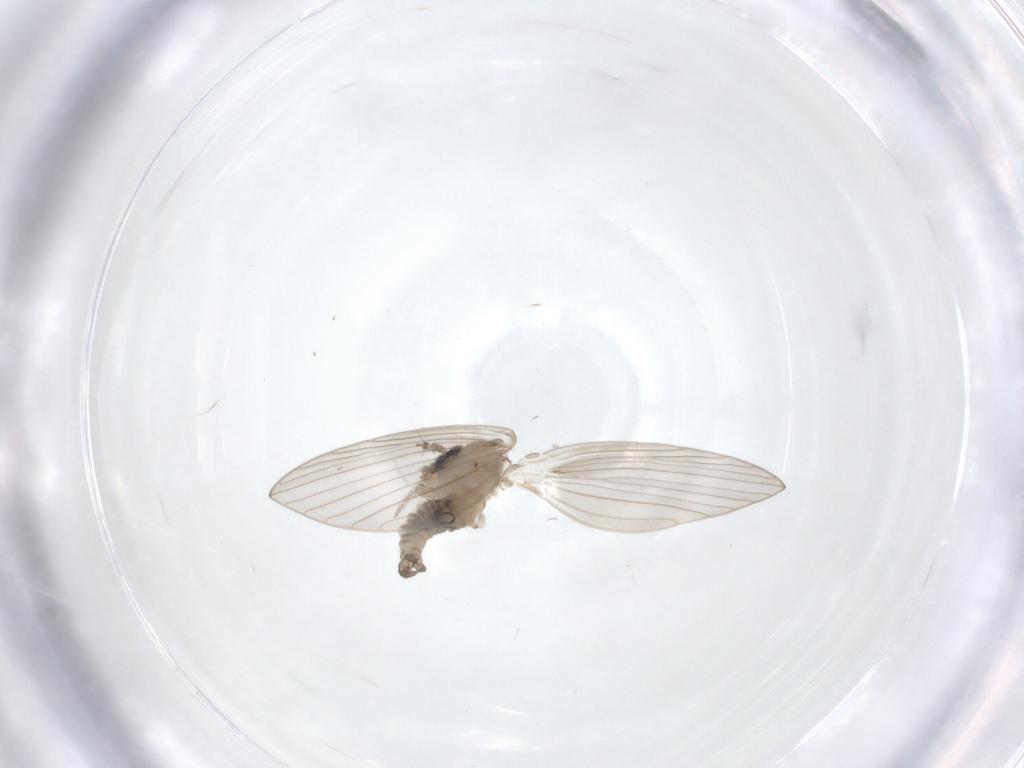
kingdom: Animalia
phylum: Arthropoda
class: Insecta
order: Diptera
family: Psychodidae
